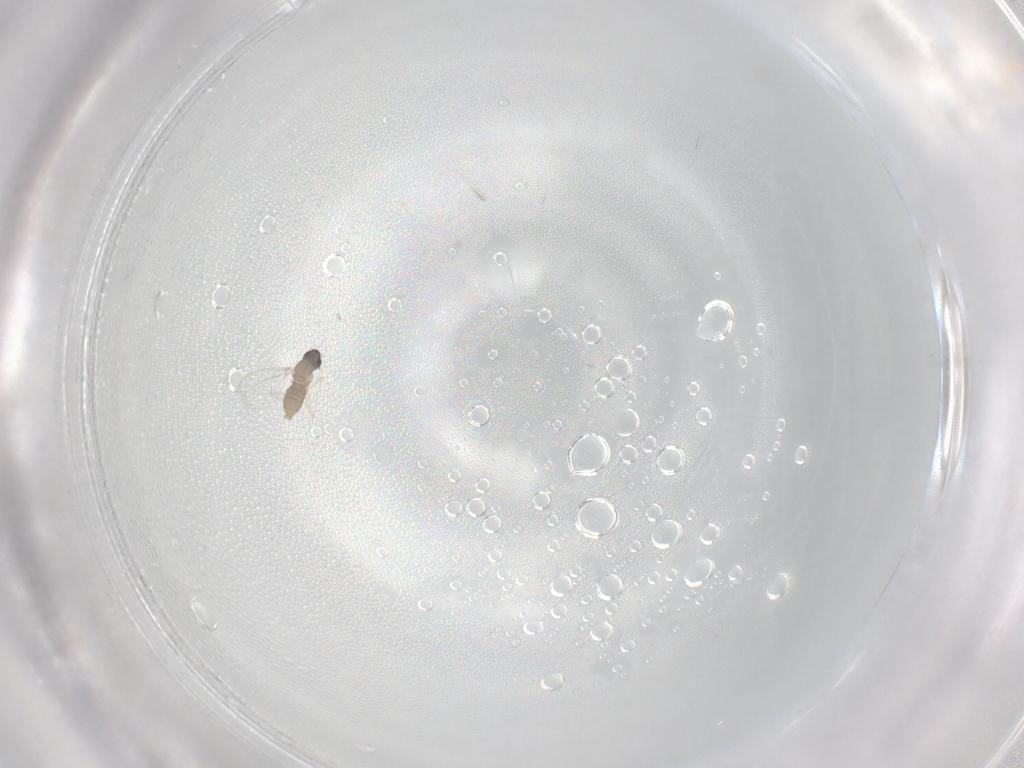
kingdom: Animalia
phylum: Arthropoda
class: Insecta
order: Diptera
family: Cecidomyiidae
